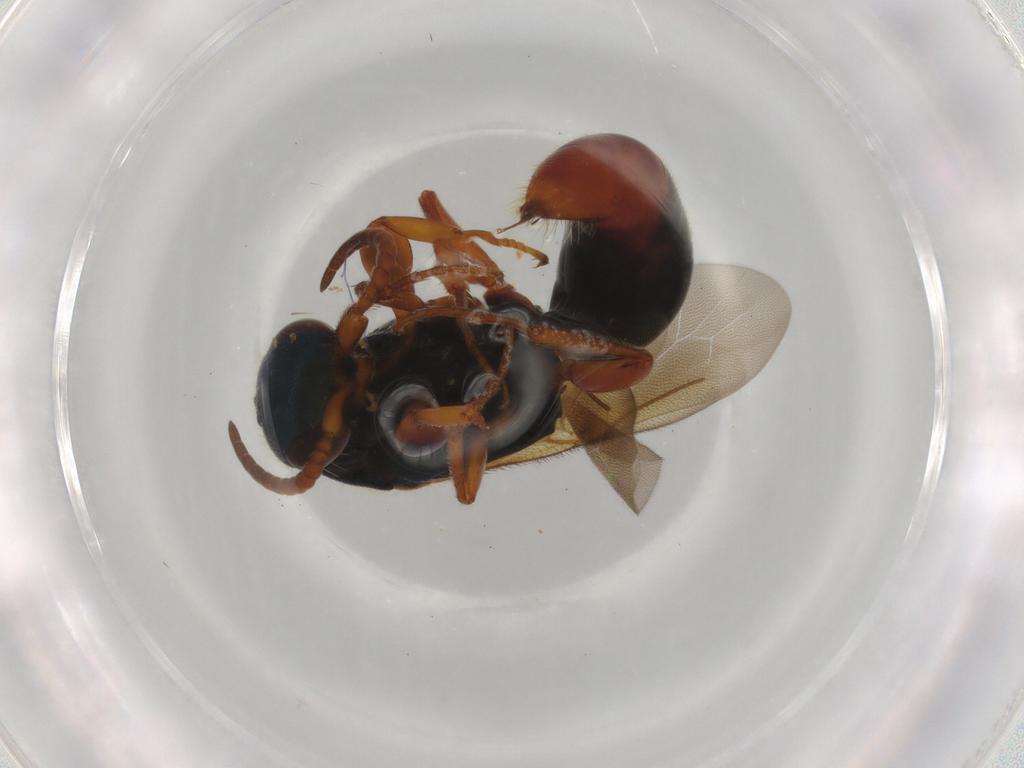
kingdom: Animalia
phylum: Arthropoda
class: Insecta
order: Hymenoptera
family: Bethylidae
